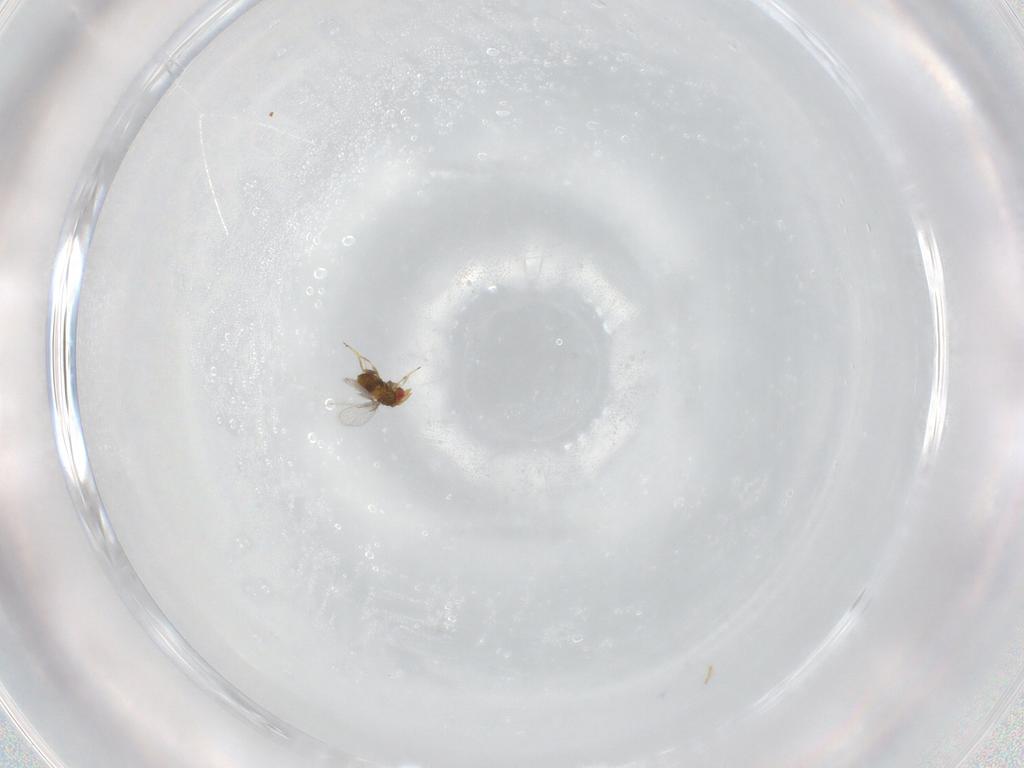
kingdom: Animalia
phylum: Arthropoda
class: Insecta
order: Hymenoptera
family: Trichogrammatidae
